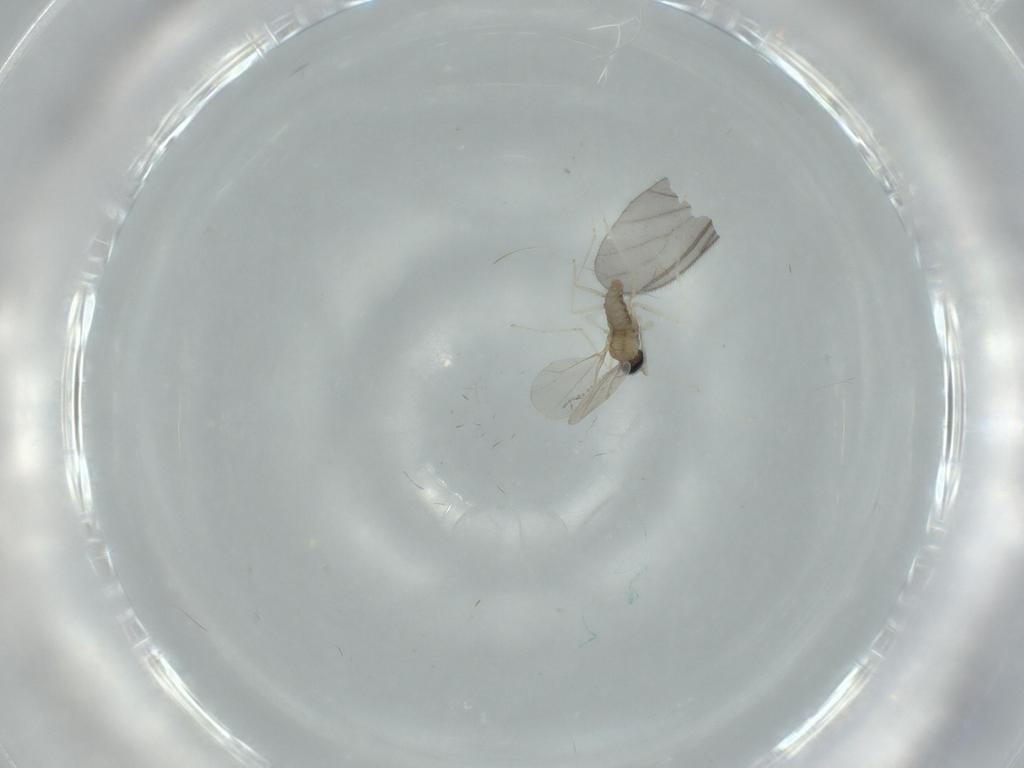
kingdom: Animalia
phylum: Arthropoda
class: Insecta
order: Diptera
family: Cecidomyiidae
